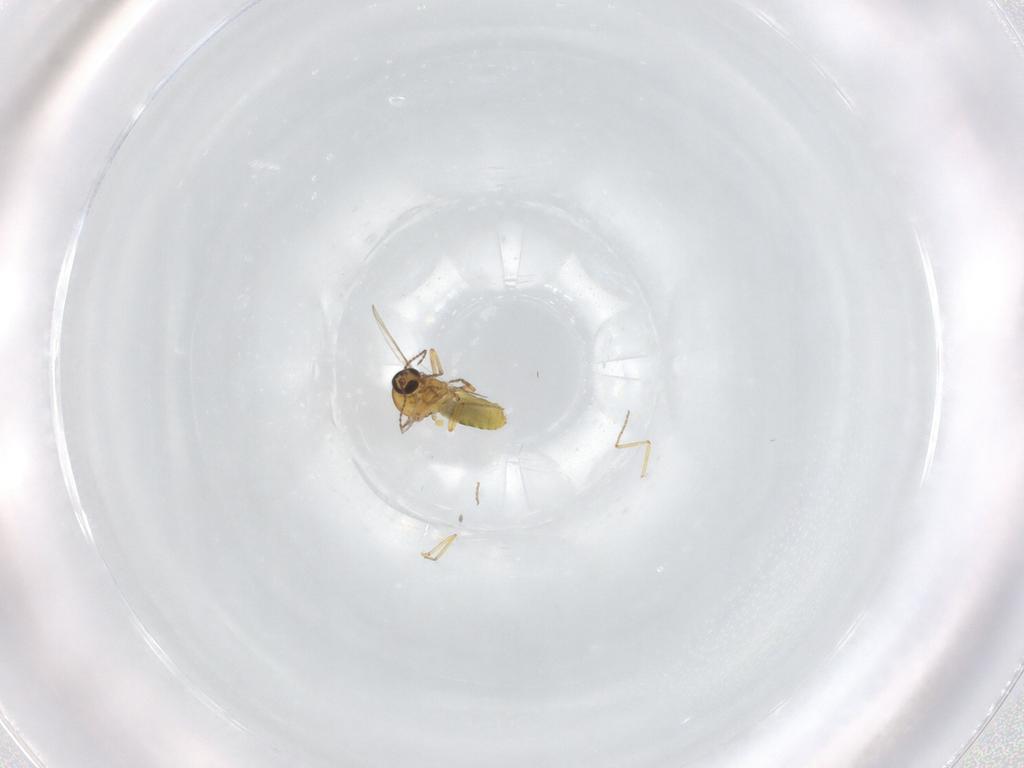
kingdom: Animalia
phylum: Arthropoda
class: Insecta
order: Diptera
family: Ceratopogonidae
